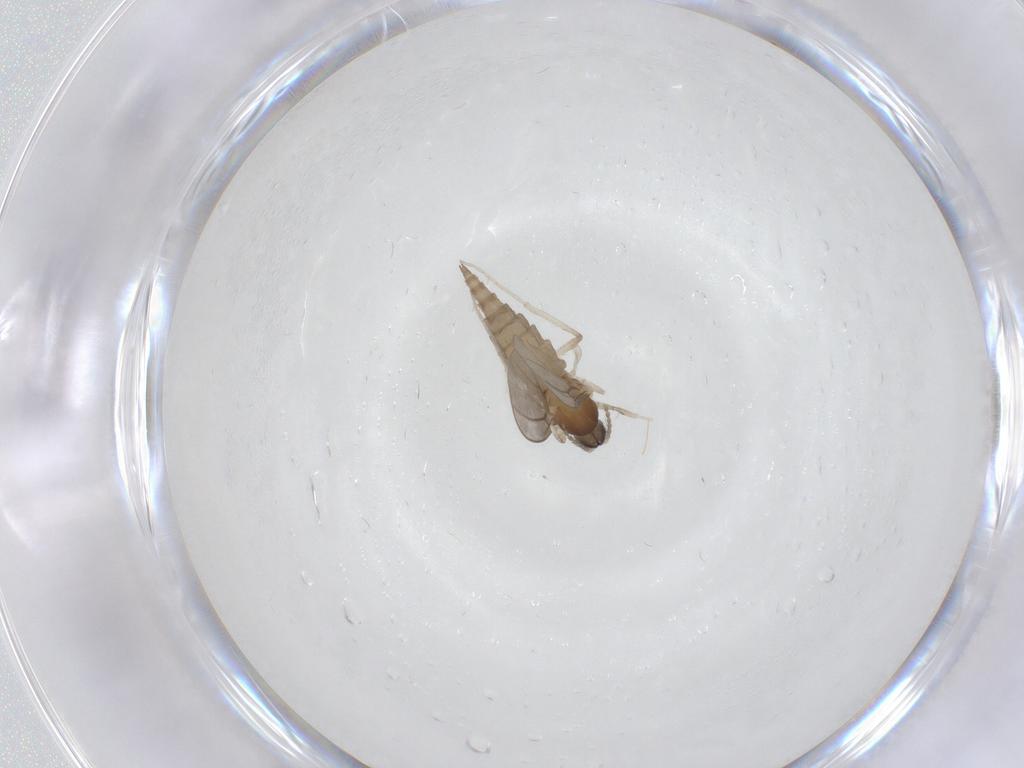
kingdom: Animalia
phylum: Arthropoda
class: Insecta
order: Diptera
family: Cecidomyiidae
